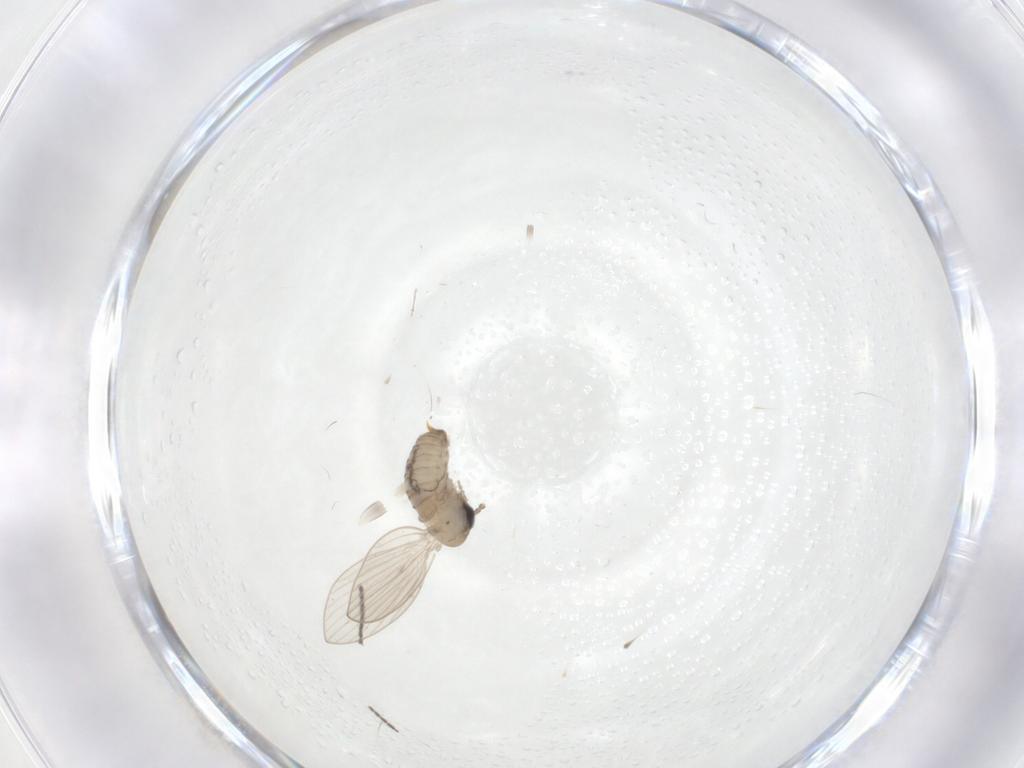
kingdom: Animalia
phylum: Arthropoda
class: Insecta
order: Diptera
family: Psychodidae
